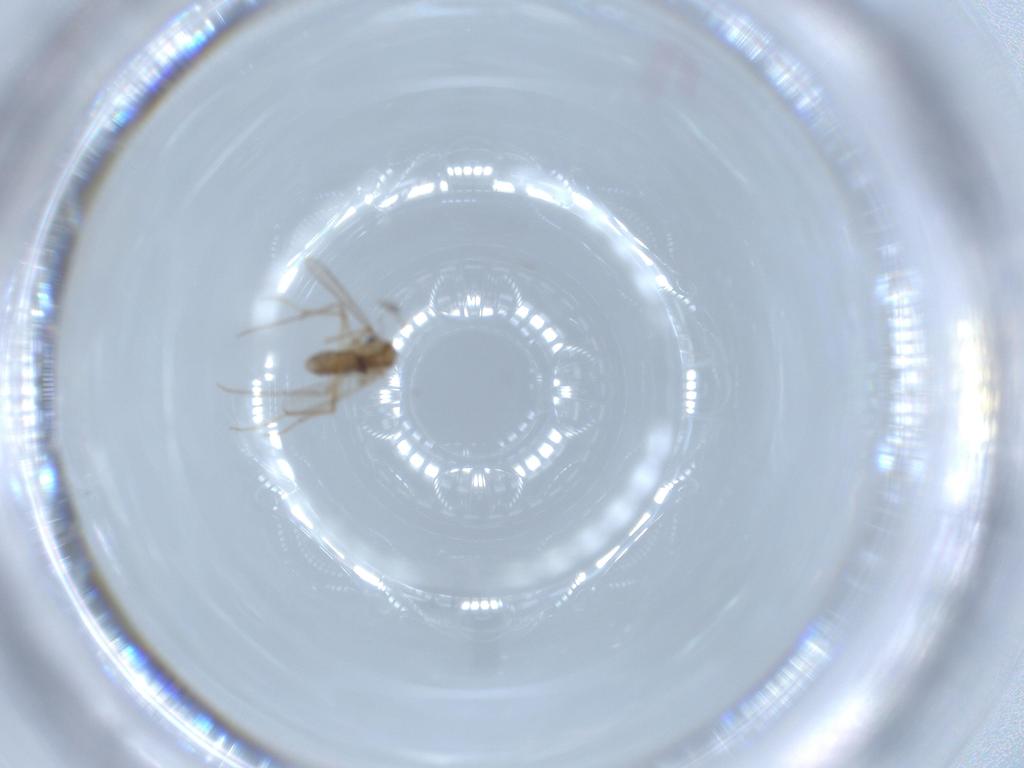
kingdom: Animalia
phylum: Arthropoda
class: Insecta
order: Diptera
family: Chironomidae
